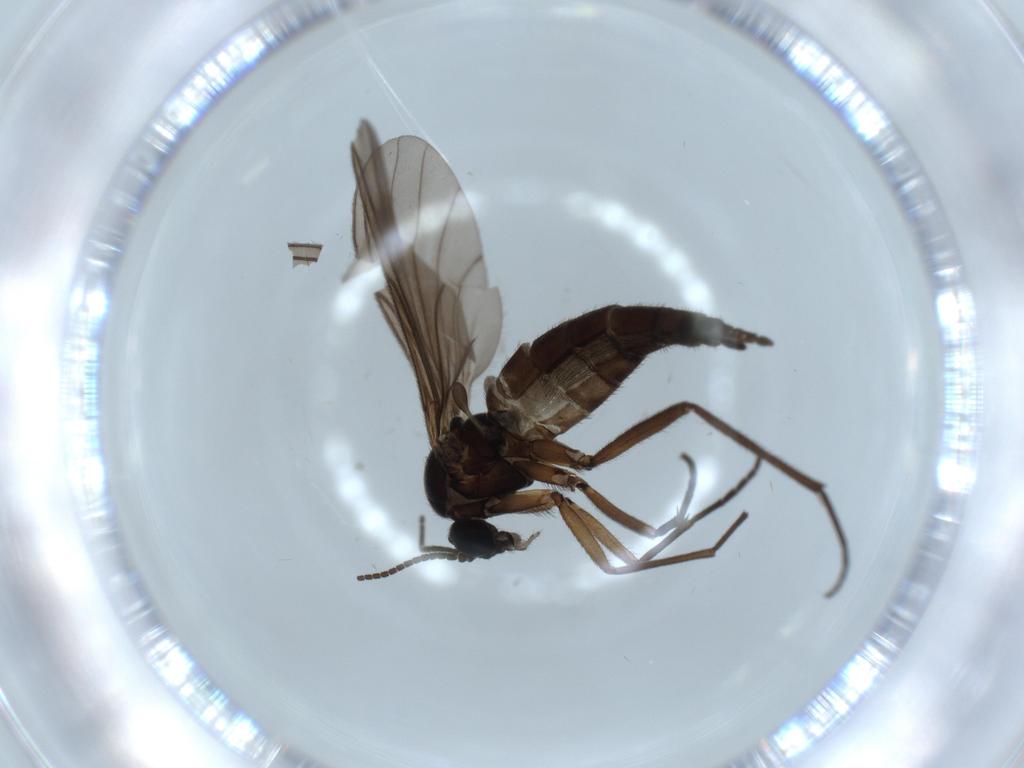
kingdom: Animalia
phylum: Arthropoda
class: Insecta
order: Diptera
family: Sciaridae
